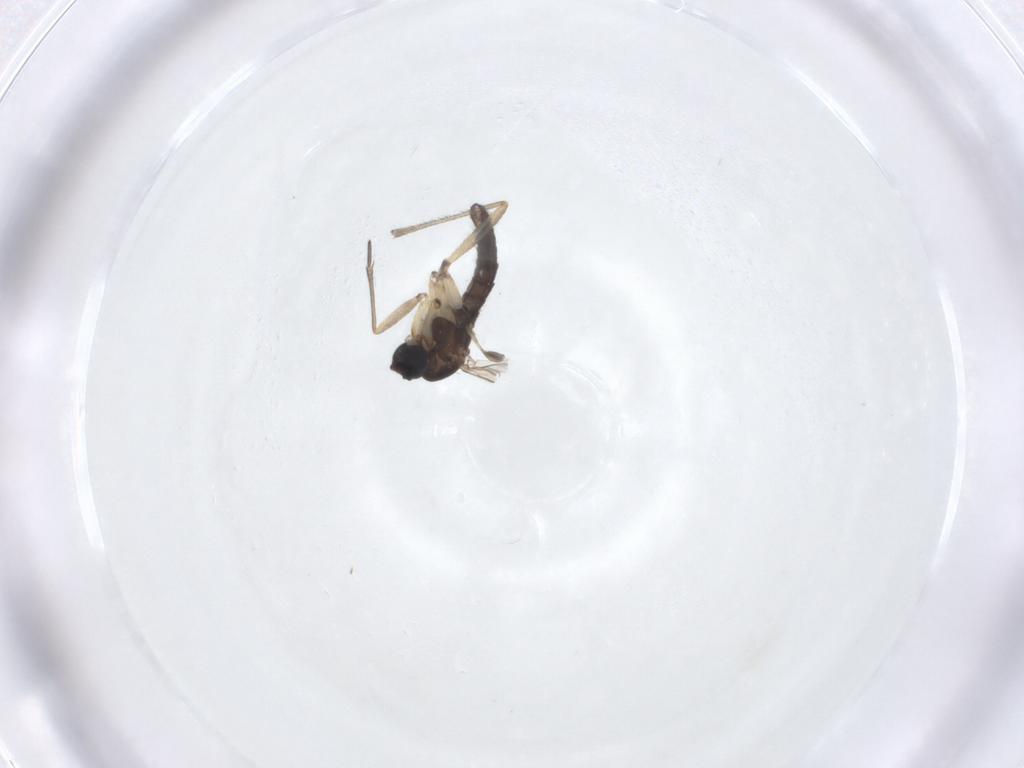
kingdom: Animalia
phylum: Arthropoda
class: Insecta
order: Diptera
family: Sciaridae
